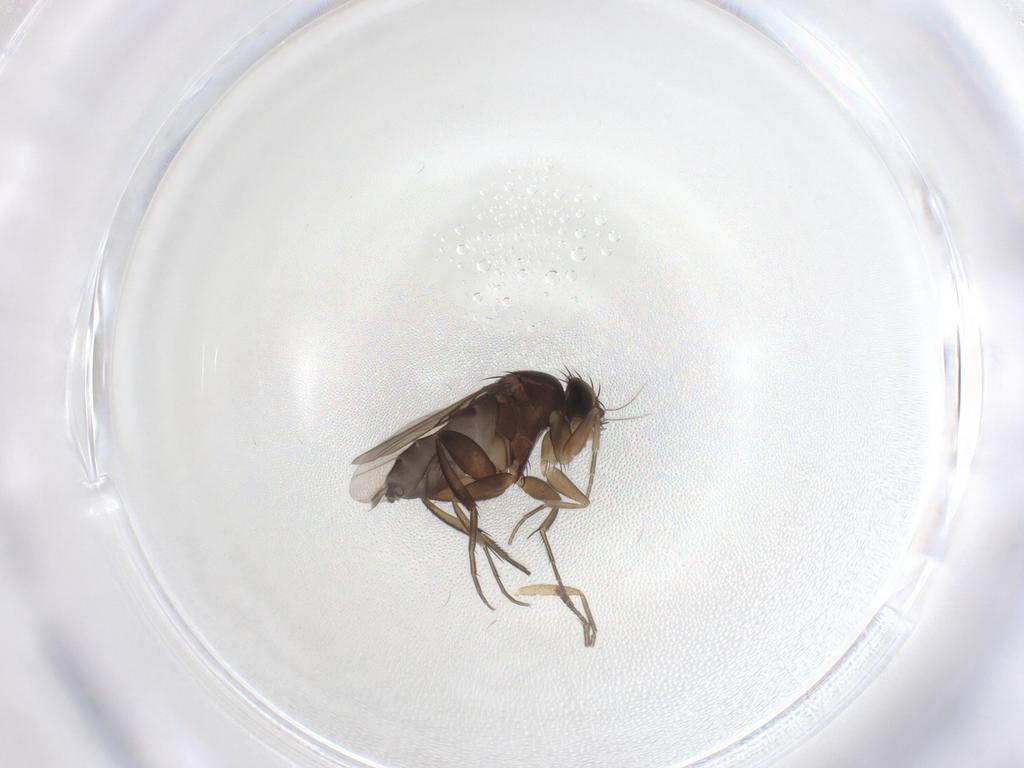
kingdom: Animalia
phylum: Arthropoda
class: Insecta
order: Diptera
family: Phoridae
